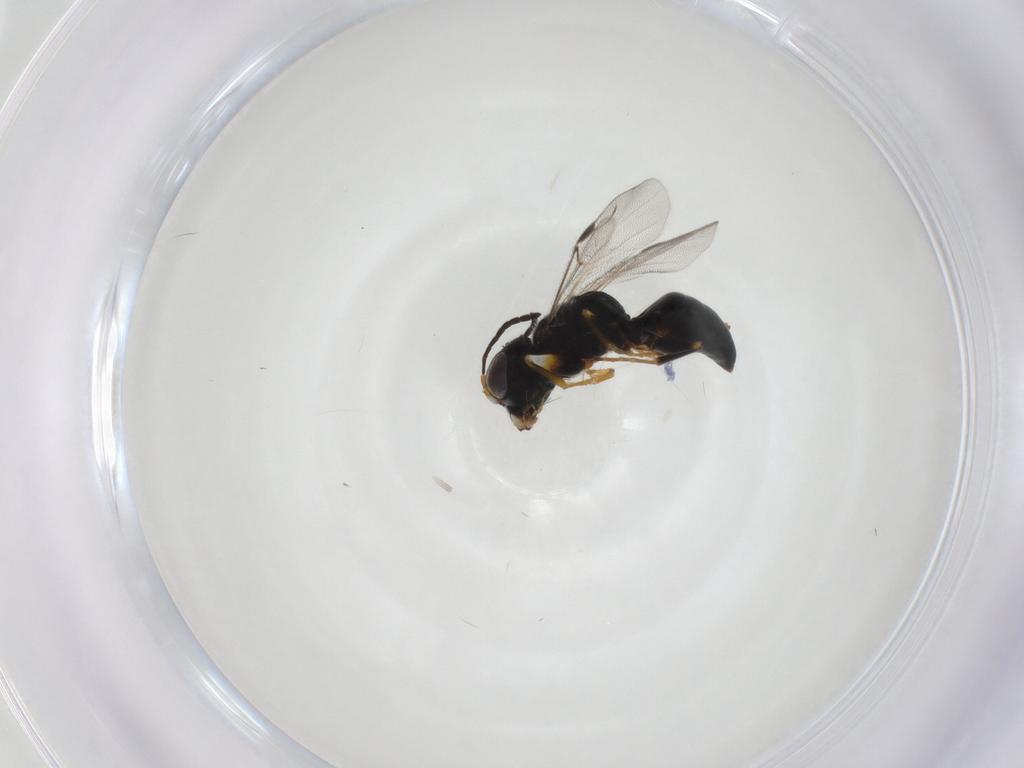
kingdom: Animalia
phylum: Arthropoda
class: Insecta
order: Hymenoptera
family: Dryinidae
